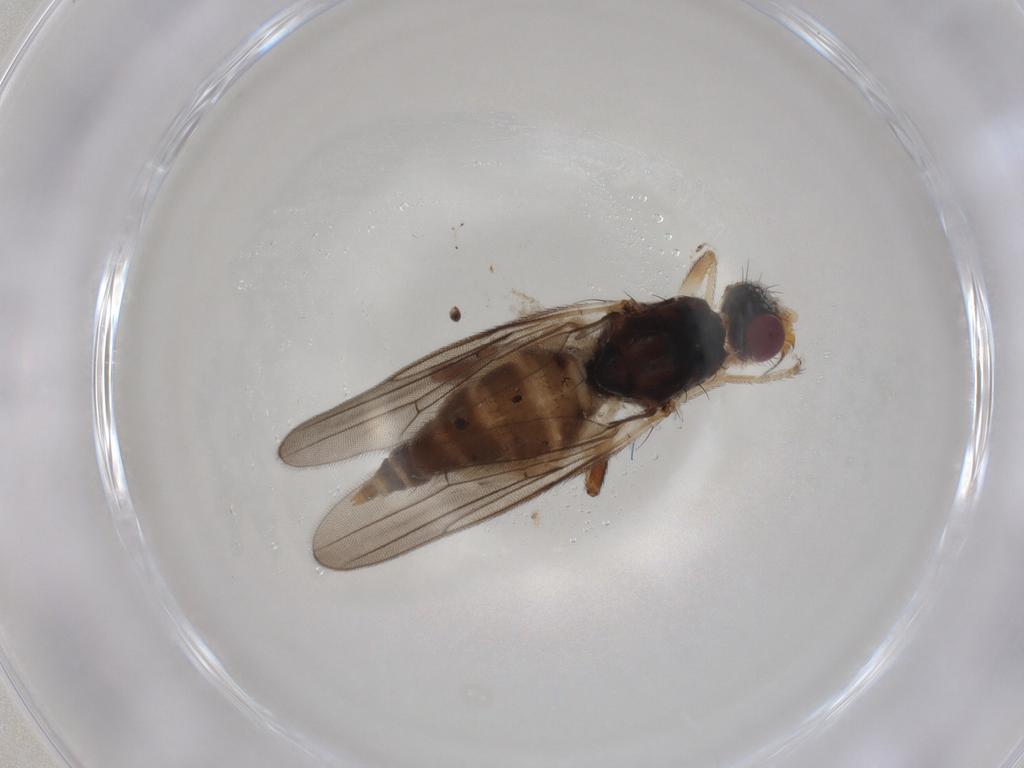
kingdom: Animalia
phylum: Arthropoda
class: Insecta
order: Diptera
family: Chloropidae
